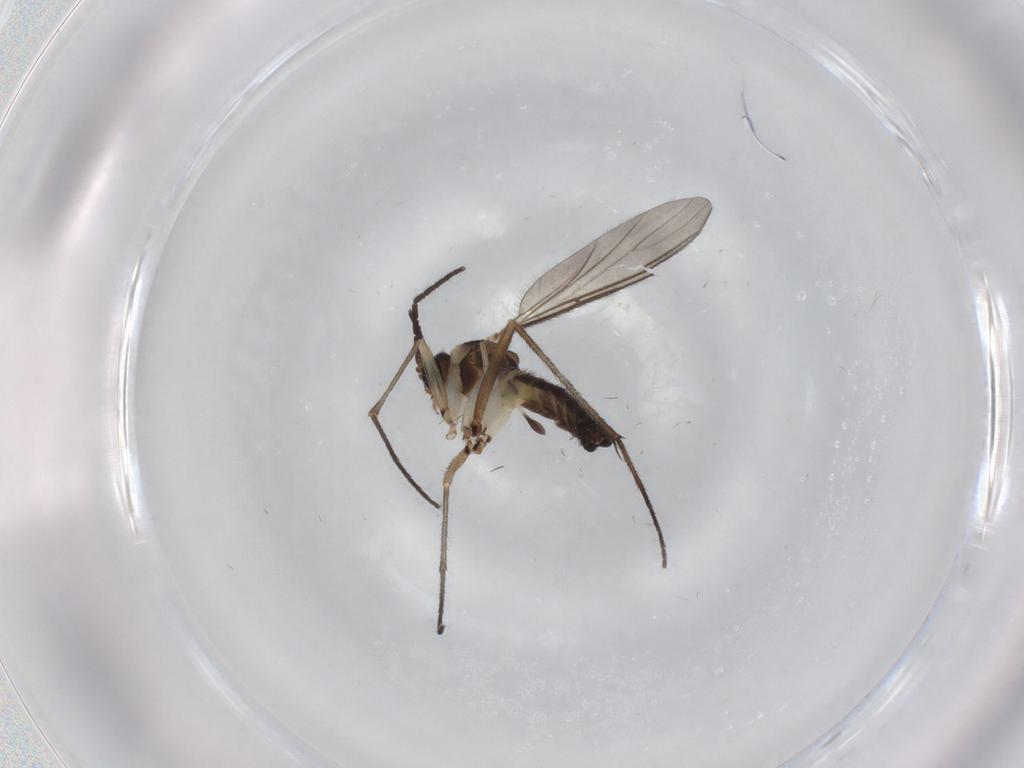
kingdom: Animalia
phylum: Arthropoda
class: Insecta
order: Diptera
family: Sciaridae
